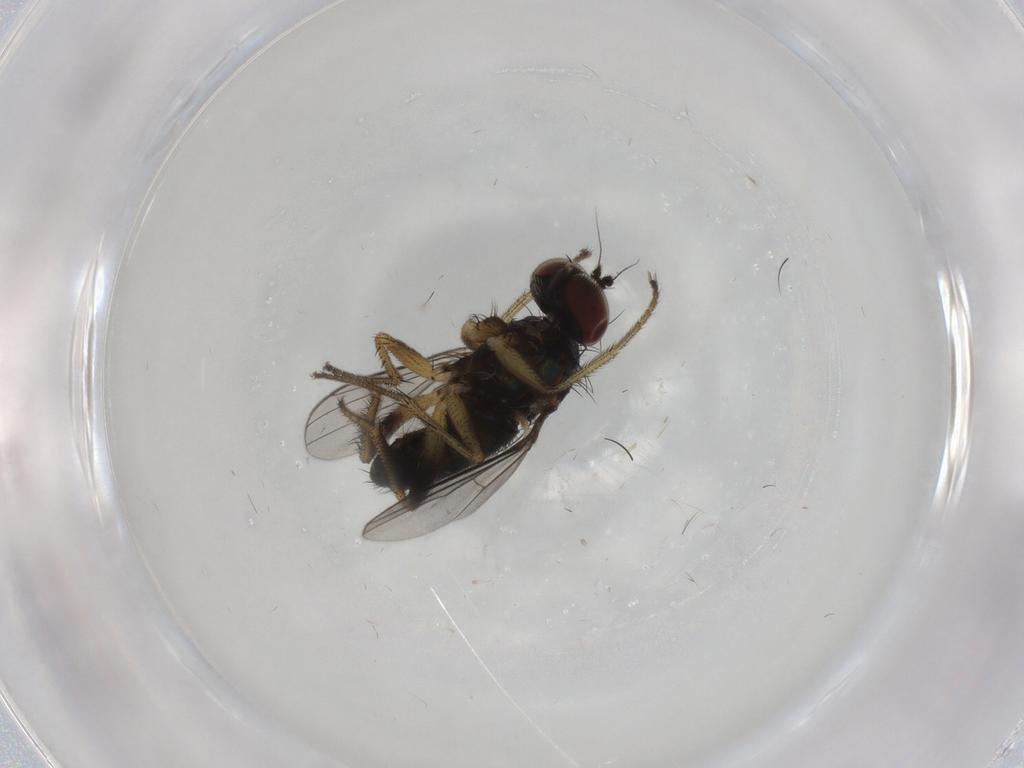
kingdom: Animalia
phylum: Arthropoda
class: Insecta
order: Diptera
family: Dolichopodidae
